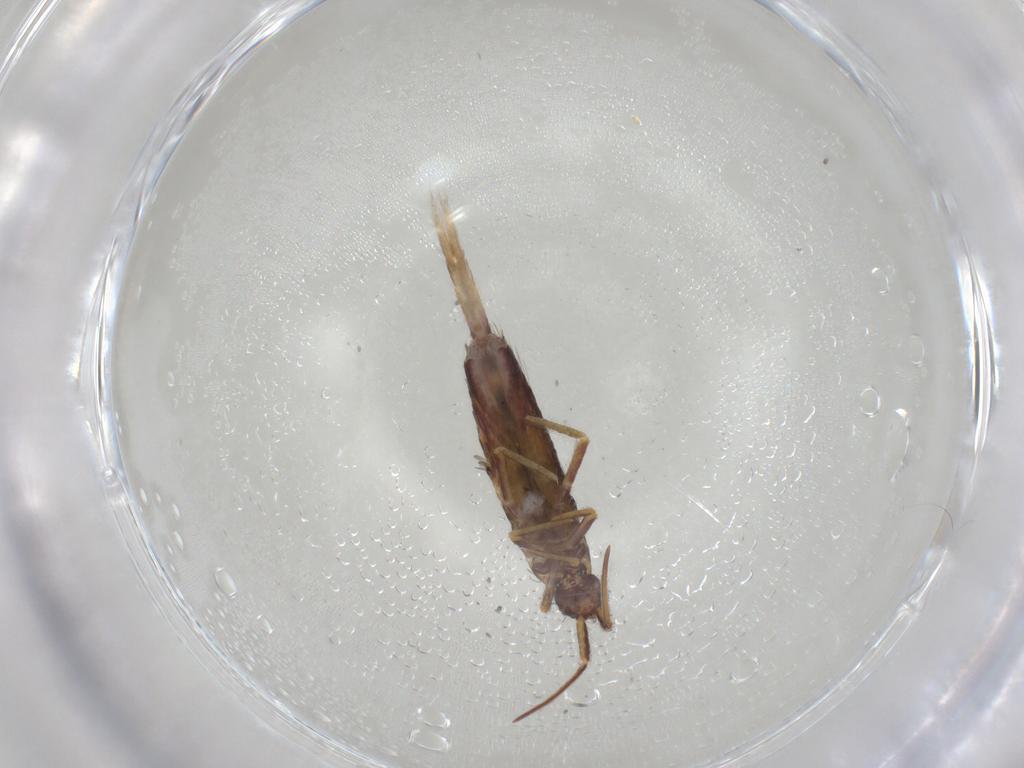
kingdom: Animalia
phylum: Arthropoda
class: Collembola
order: Entomobryomorpha
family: Entomobryidae
